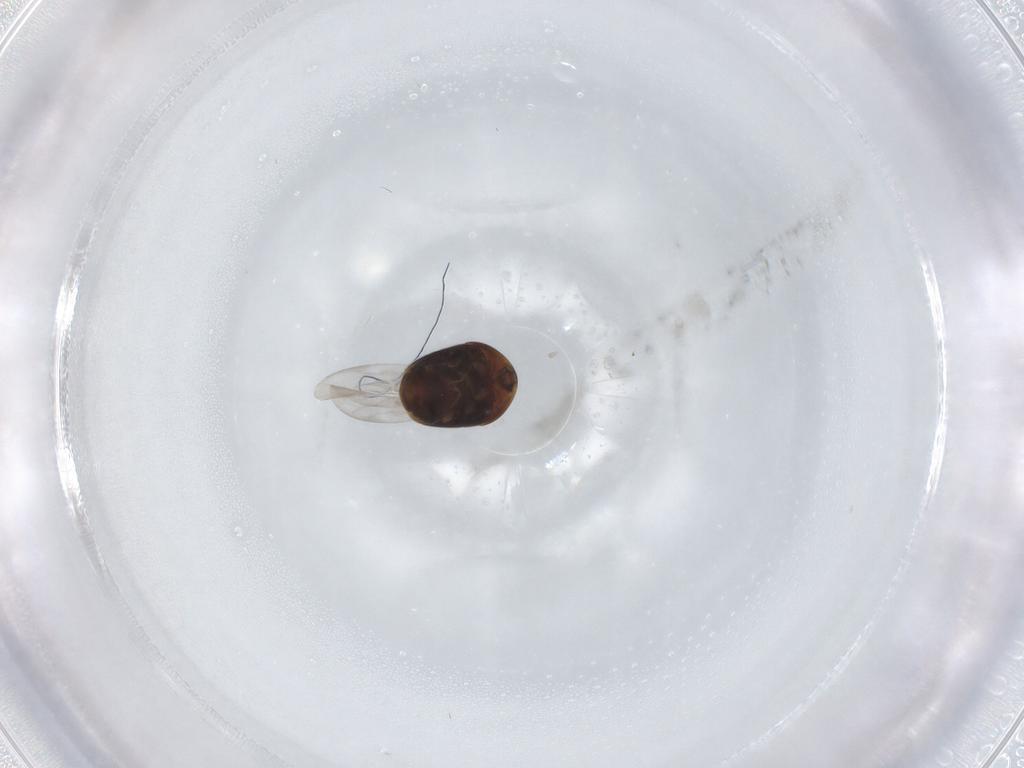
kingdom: Animalia
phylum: Arthropoda
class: Insecta
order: Coleoptera
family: Corylophidae
